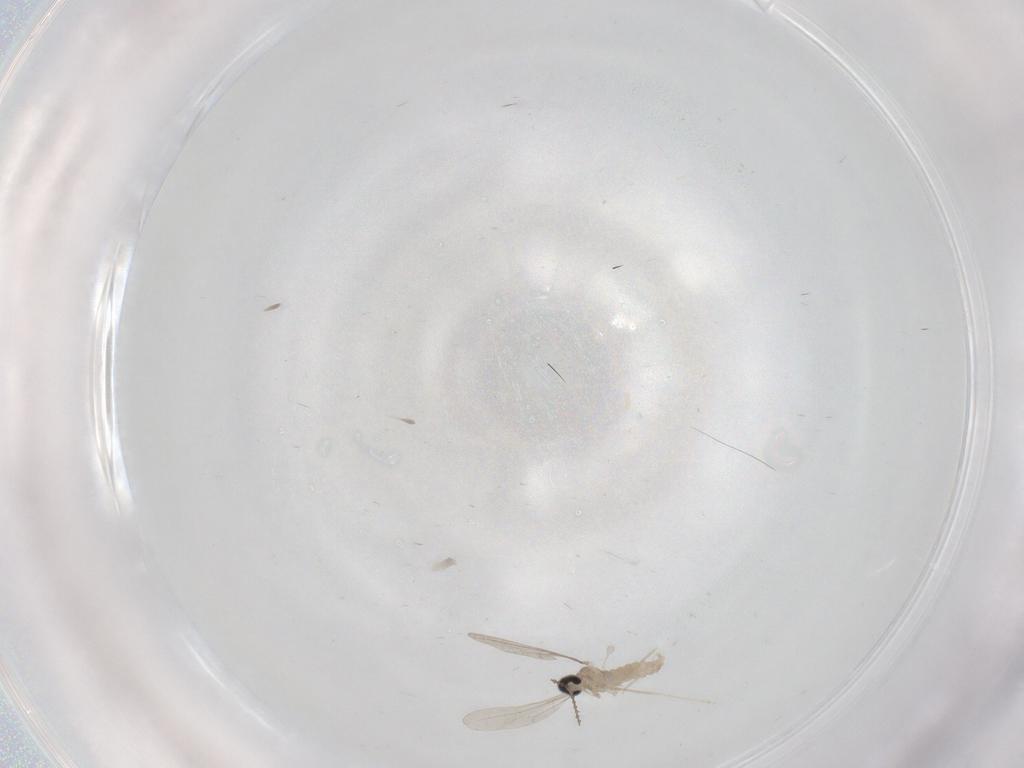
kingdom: Animalia
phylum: Arthropoda
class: Insecta
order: Diptera
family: Cecidomyiidae
